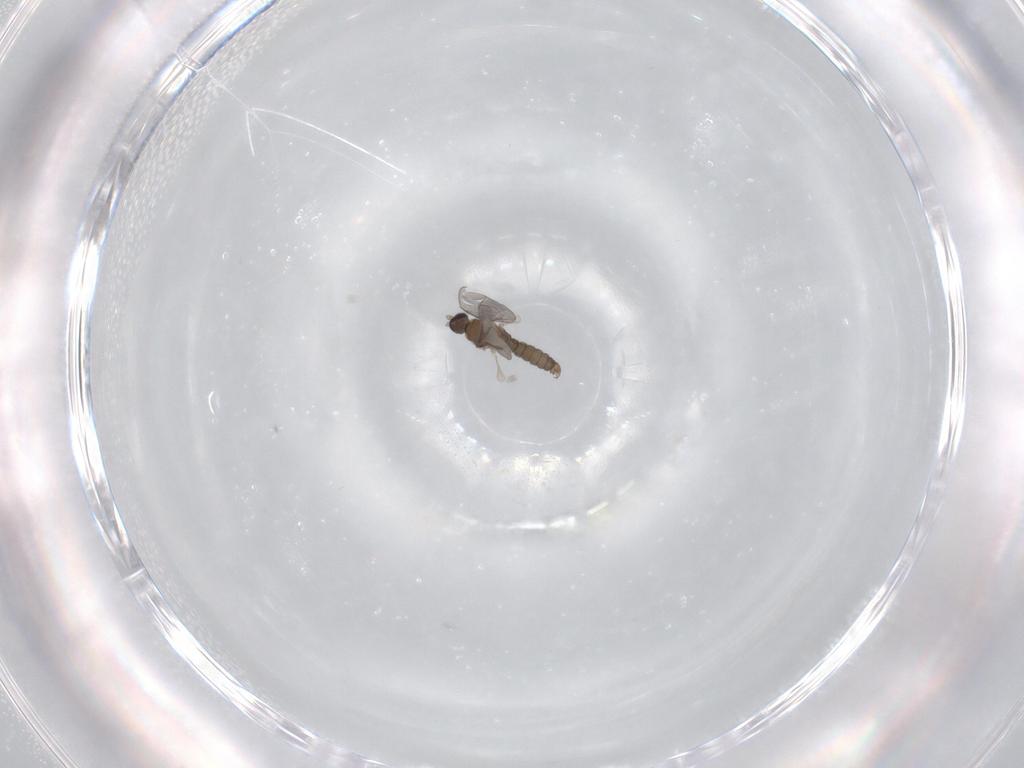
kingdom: Animalia
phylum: Arthropoda
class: Insecta
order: Diptera
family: Cecidomyiidae
